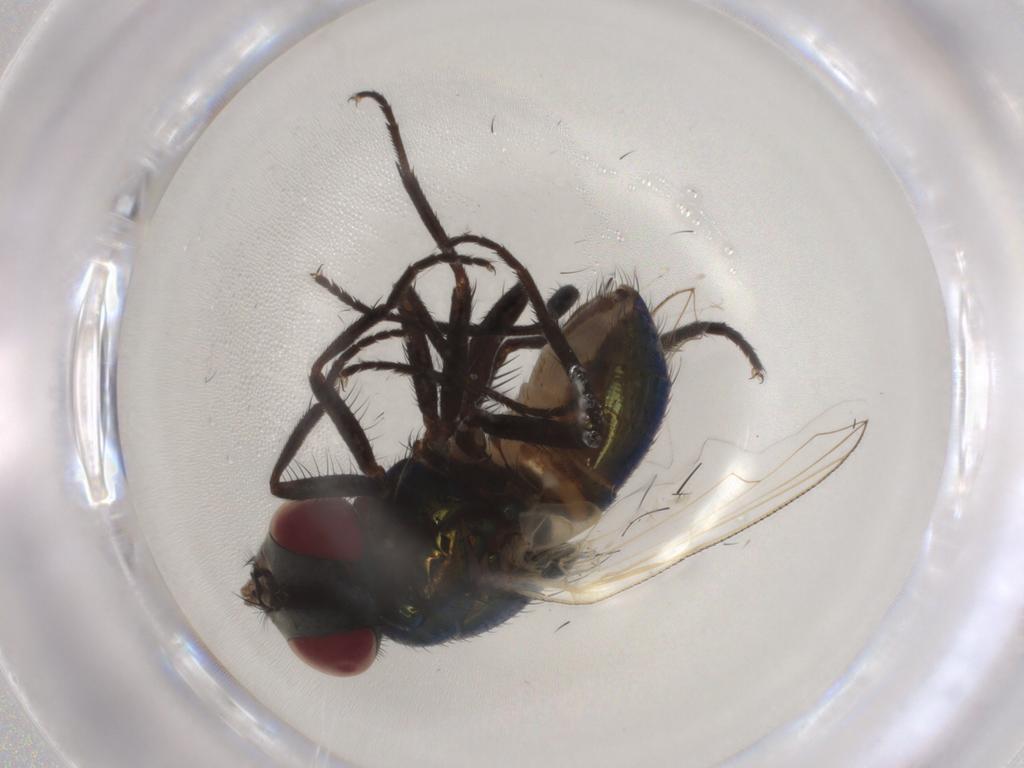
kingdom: Animalia
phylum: Arthropoda
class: Insecta
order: Diptera
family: Muscidae
